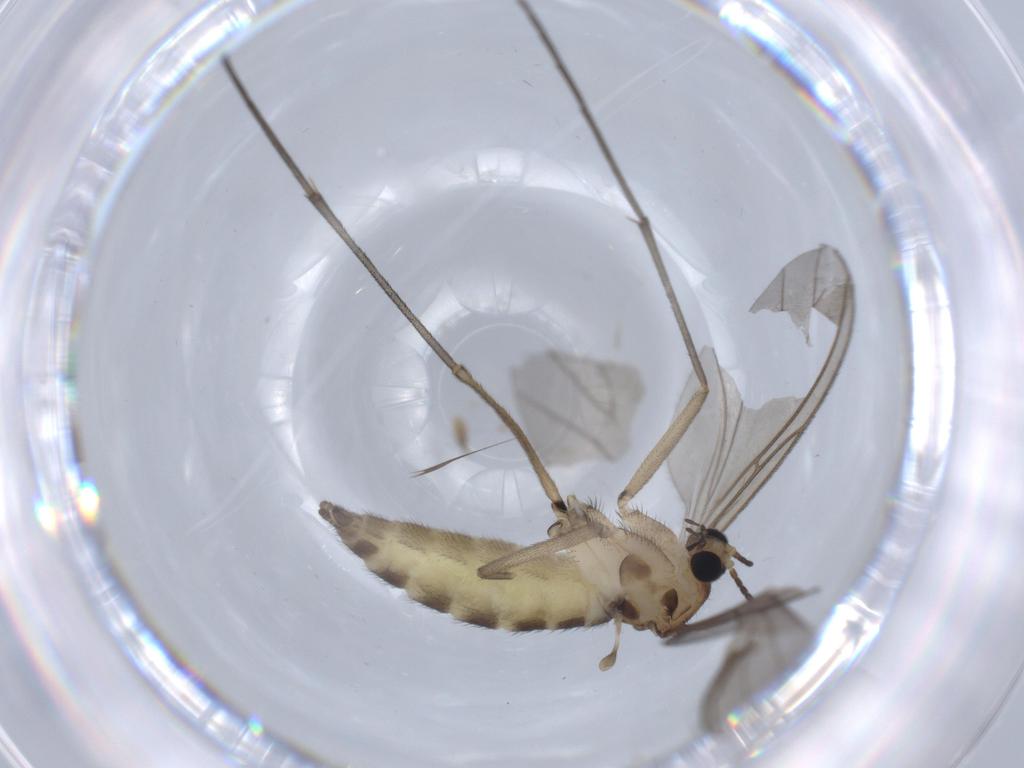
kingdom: Animalia
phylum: Arthropoda
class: Insecta
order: Diptera
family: Sciaridae
